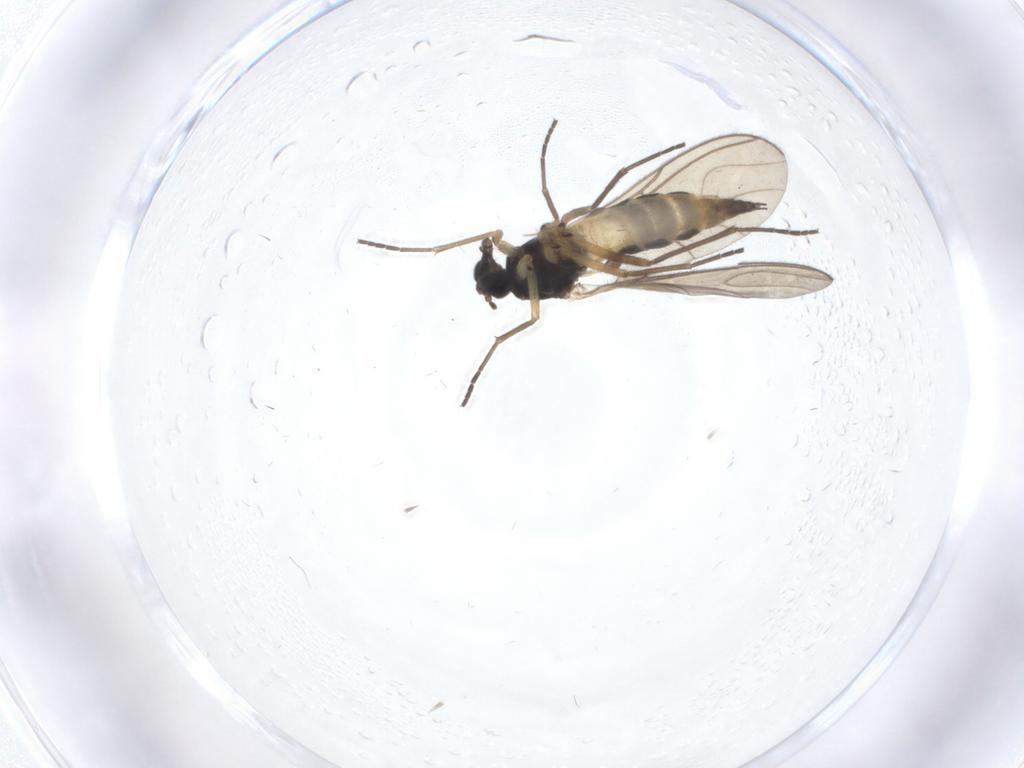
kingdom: Animalia
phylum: Arthropoda
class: Insecta
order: Diptera
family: Sciaridae
